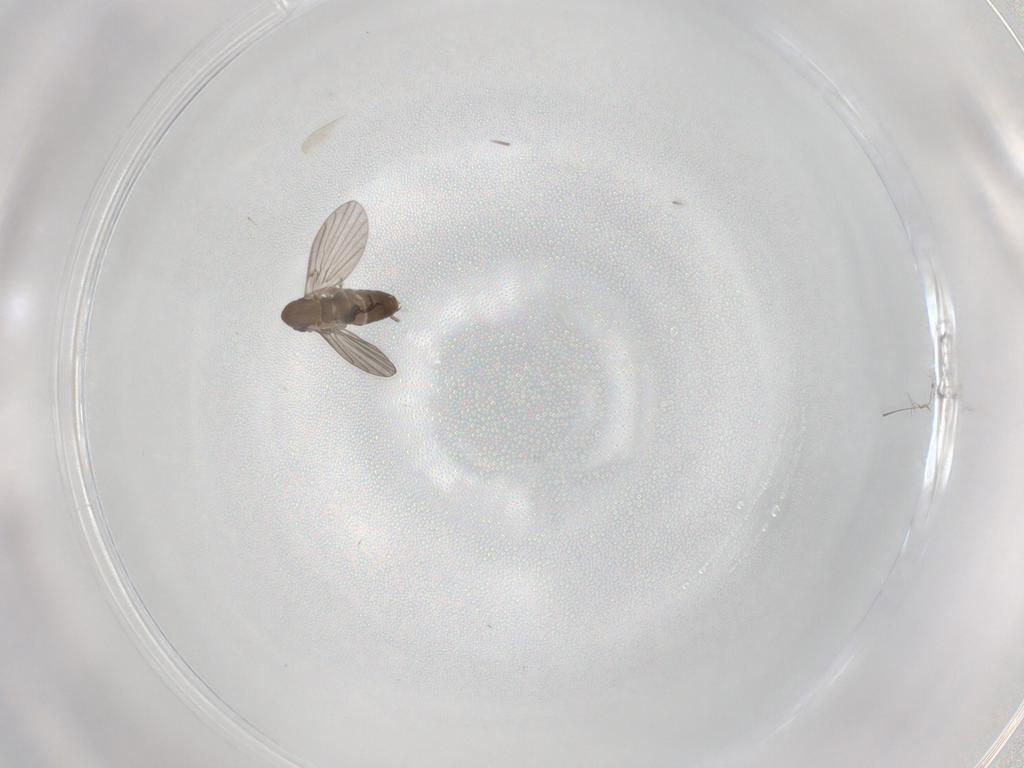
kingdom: Animalia
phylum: Arthropoda
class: Insecta
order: Diptera
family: Cecidomyiidae
